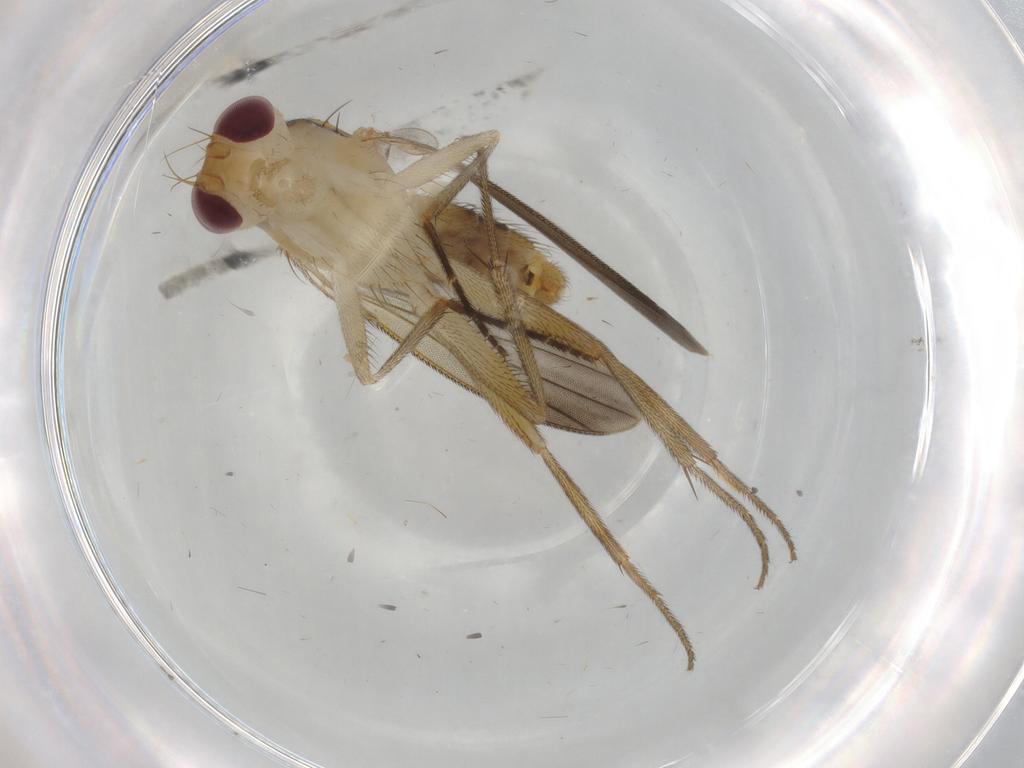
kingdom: Animalia
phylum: Arthropoda
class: Insecta
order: Diptera
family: Clusiidae
